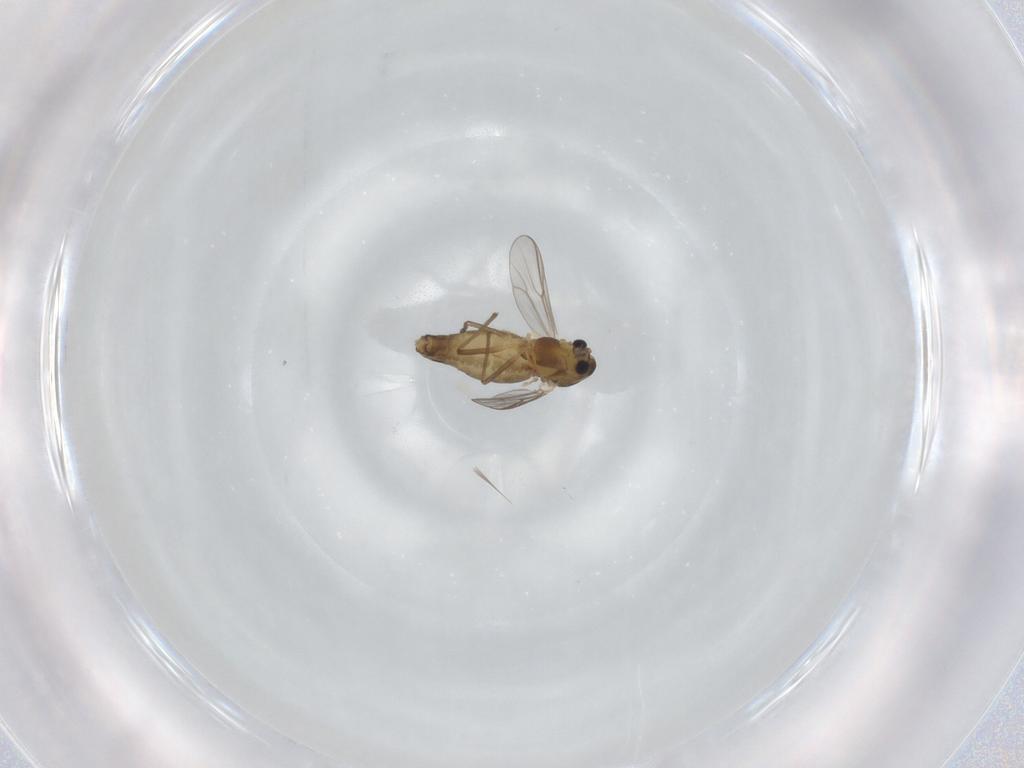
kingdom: Animalia
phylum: Arthropoda
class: Insecta
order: Diptera
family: Chironomidae
